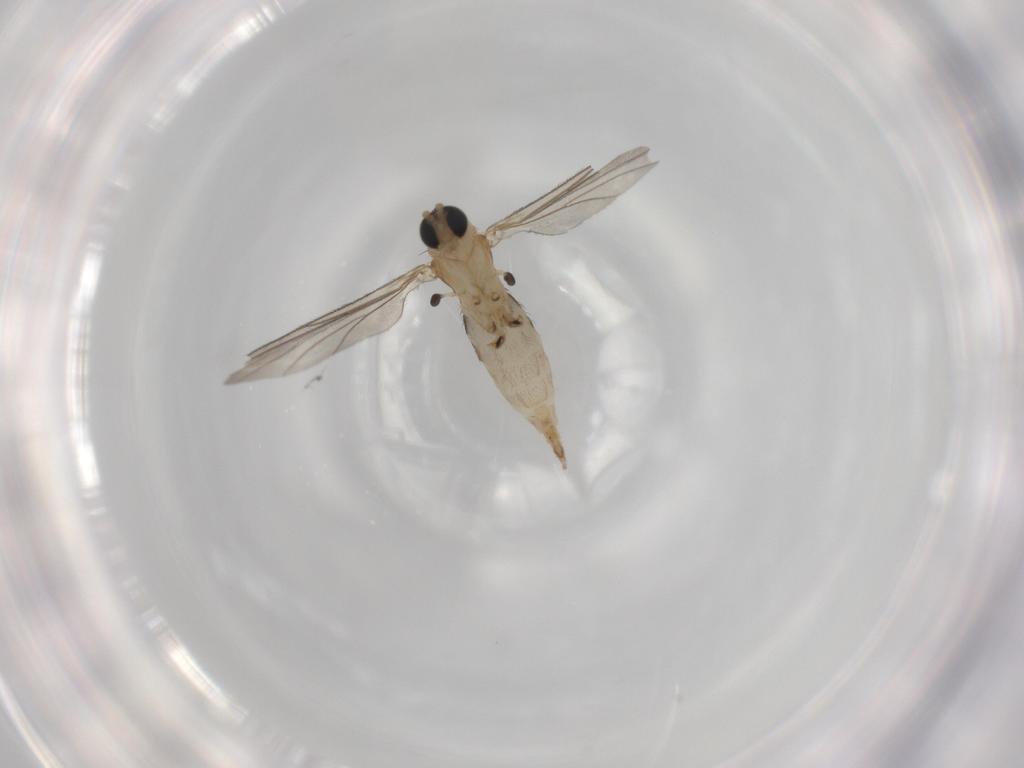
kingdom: Animalia
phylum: Arthropoda
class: Insecta
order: Diptera
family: Sciaridae
